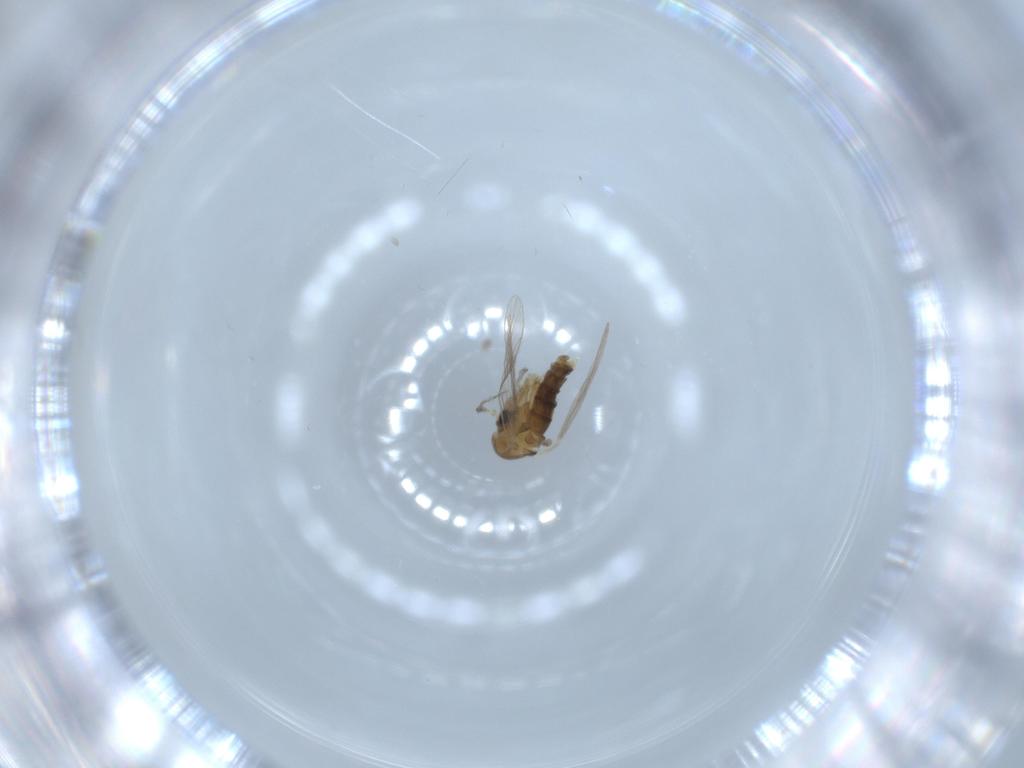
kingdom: Animalia
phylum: Arthropoda
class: Insecta
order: Diptera
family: Psychodidae
